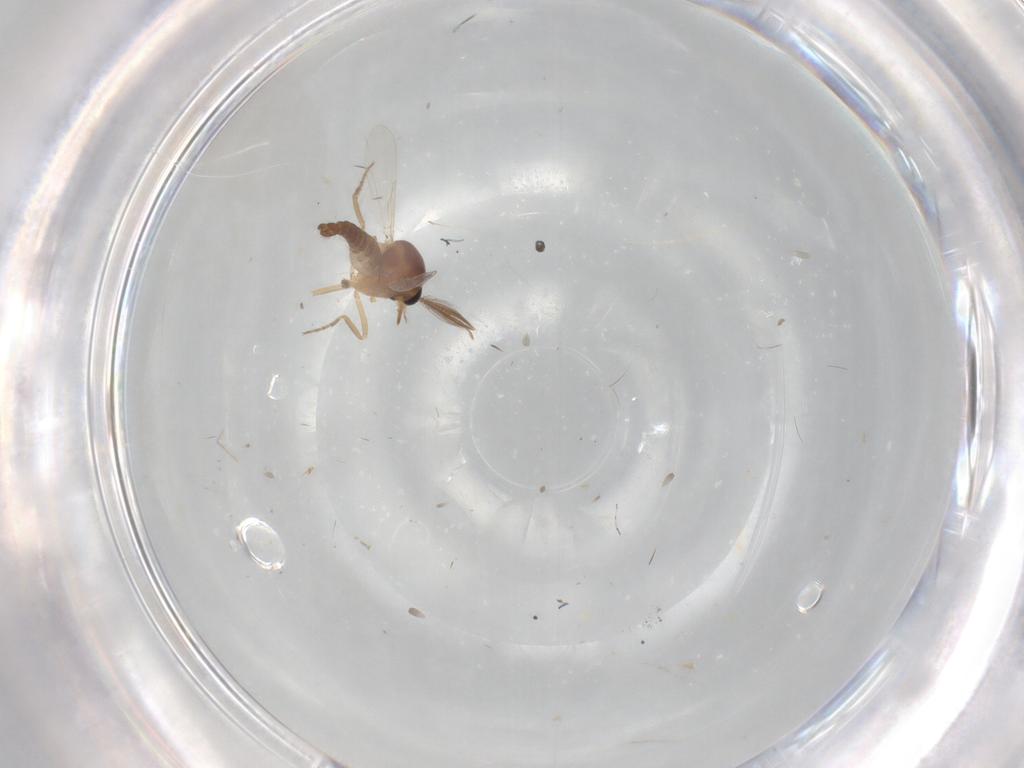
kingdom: Animalia
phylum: Arthropoda
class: Insecta
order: Diptera
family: Ceratopogonidae
